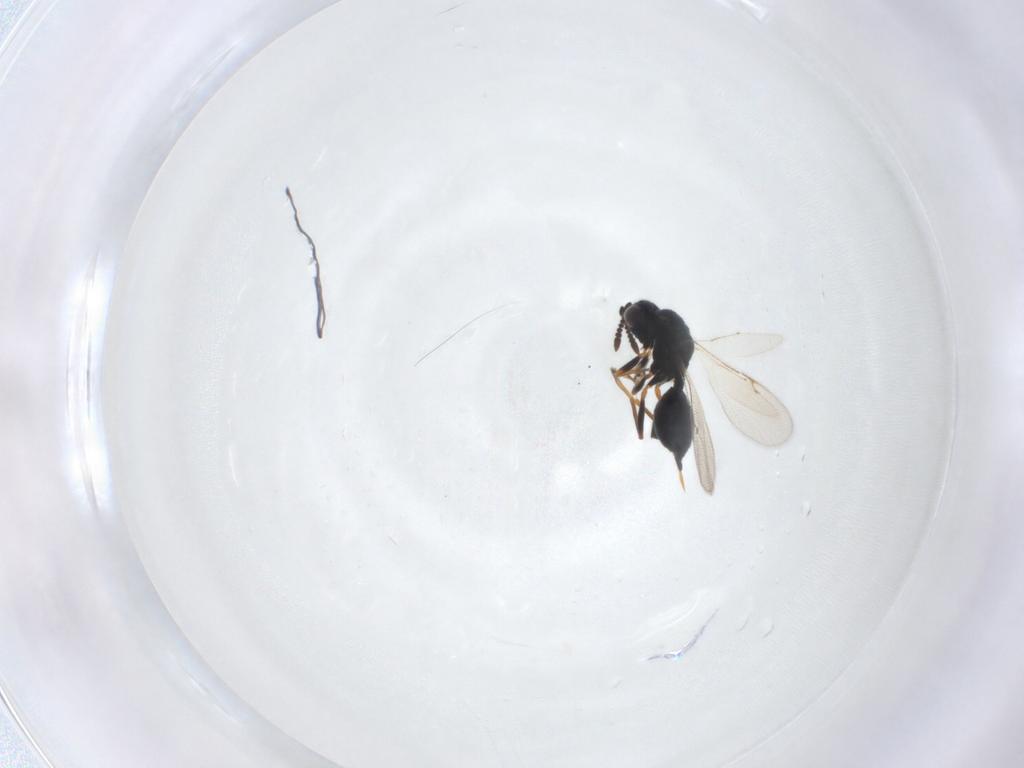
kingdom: Animalia
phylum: Arthropoda
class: Insecta
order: Hymenoptera
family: Chalcidoidea_incertae_sedis
